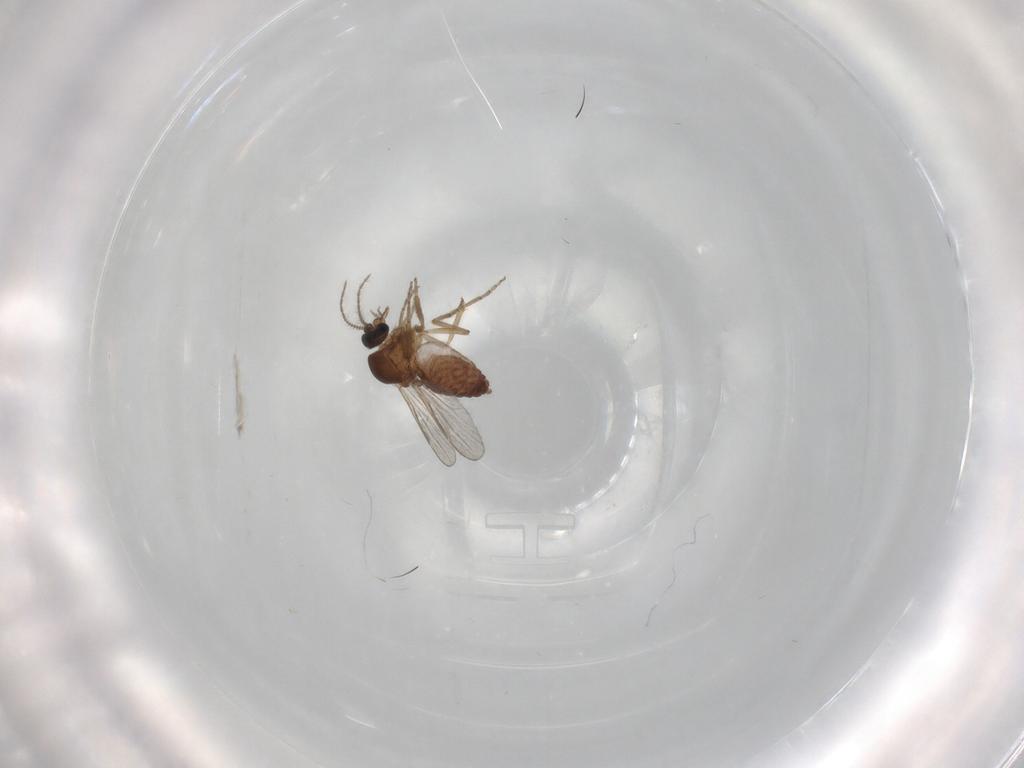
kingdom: Animalia
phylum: Arthropoda
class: Insecta
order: Diptera
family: Ceratopogonidae
